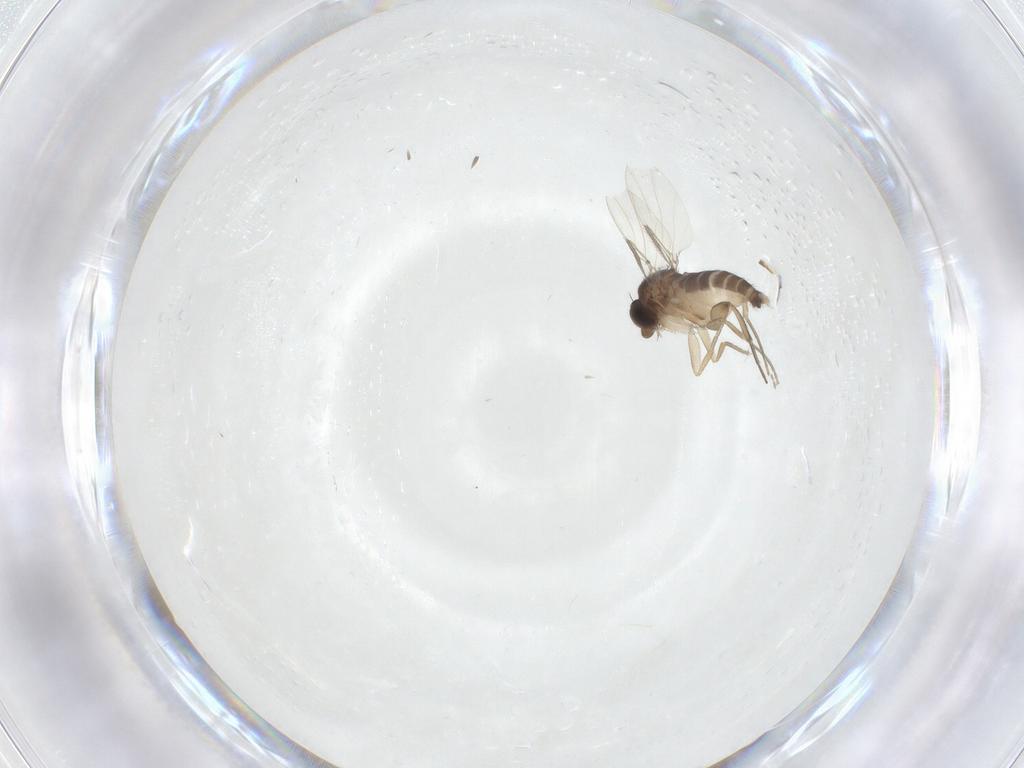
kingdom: Animalia
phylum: Arthropoda
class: Insecta
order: Diptera
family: Phoridae
